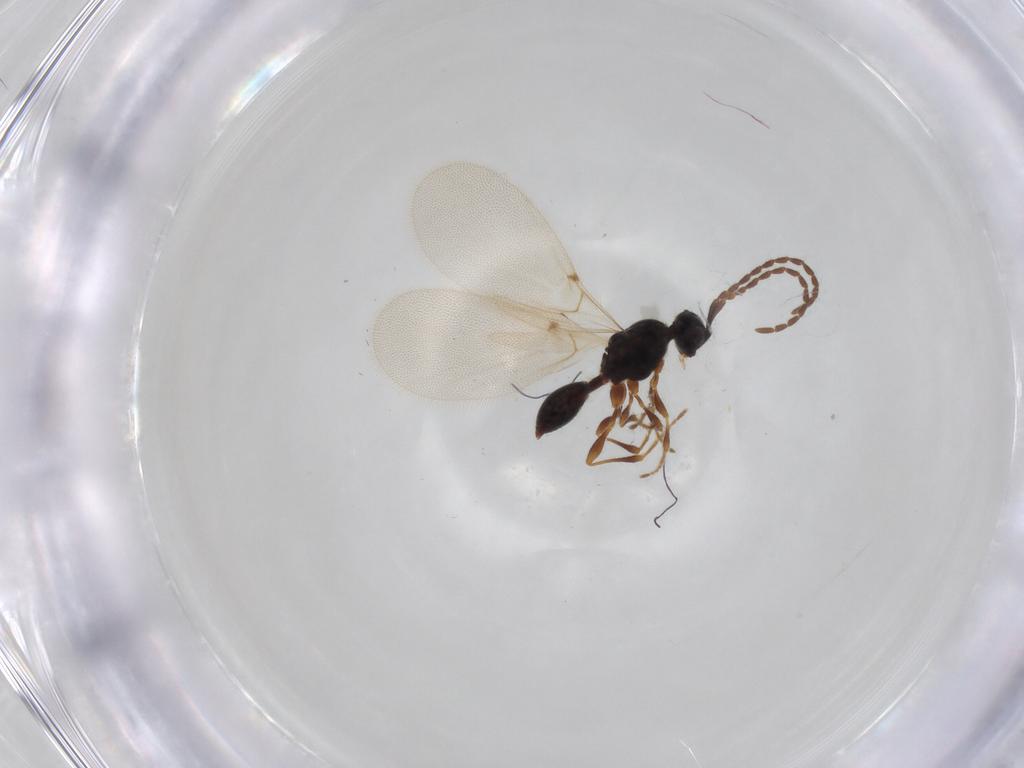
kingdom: Animalia
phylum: Arthropoda
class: Insecta
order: Hymenoptera
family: Diapriidae
